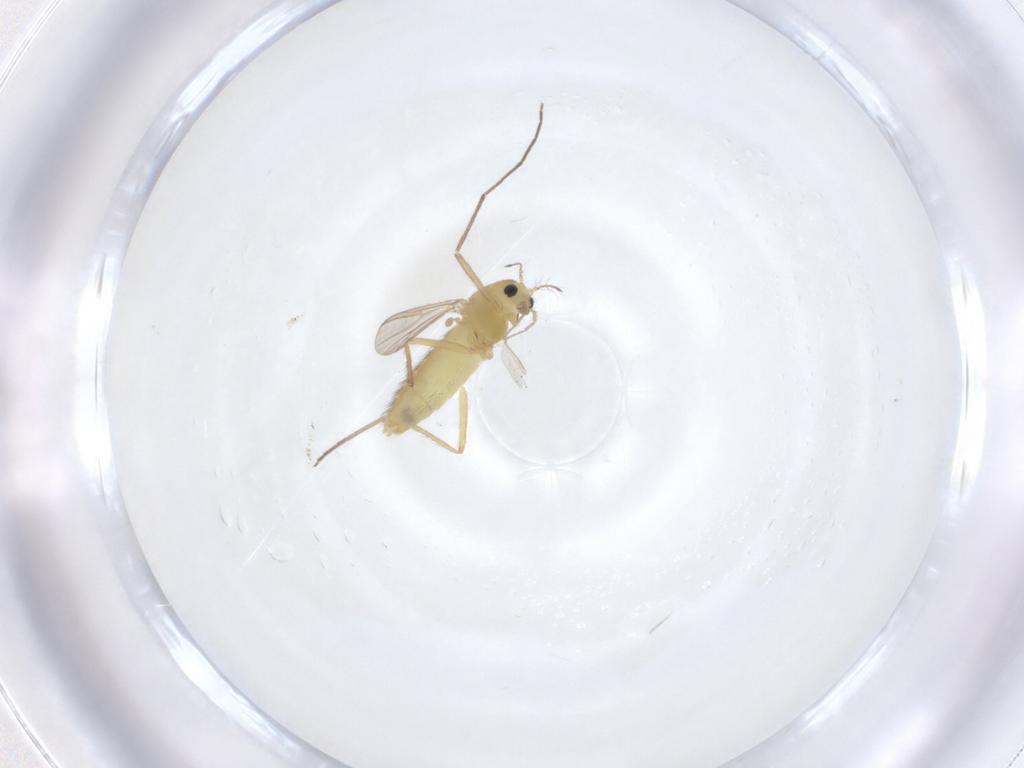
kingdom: Animalia
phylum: Arthropoda
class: Insecta
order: Diptera
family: Chironomidae
